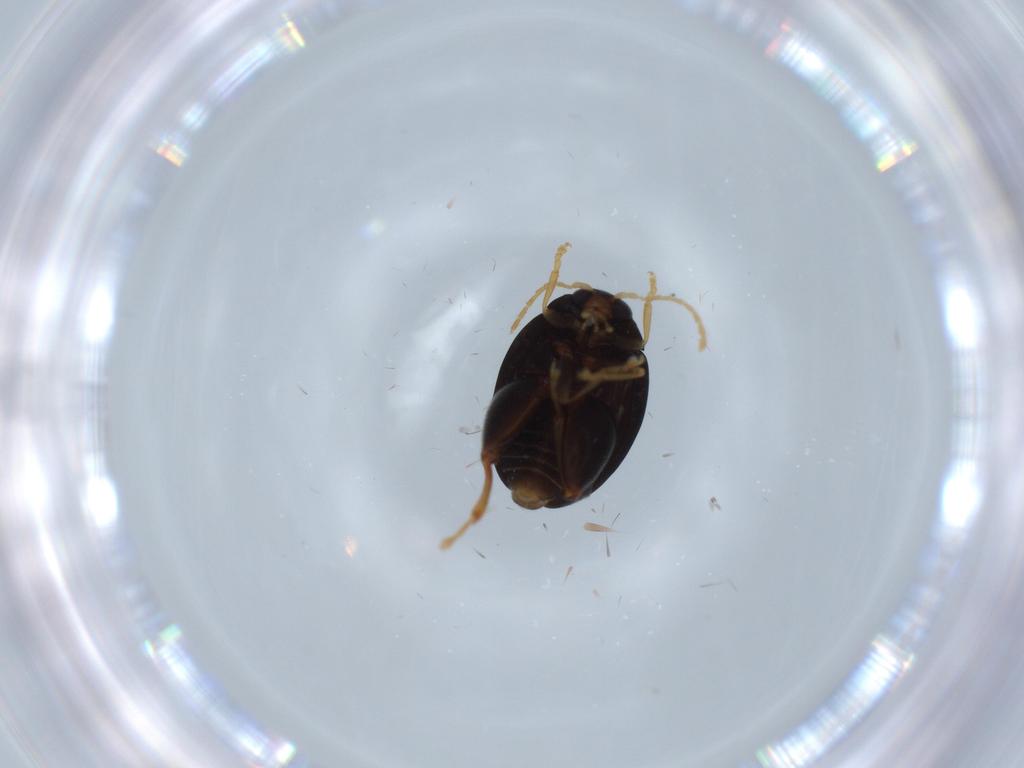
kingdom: Animalia
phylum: Arthropoda
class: Insecta
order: Coleoptera
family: Chrysomelidae
